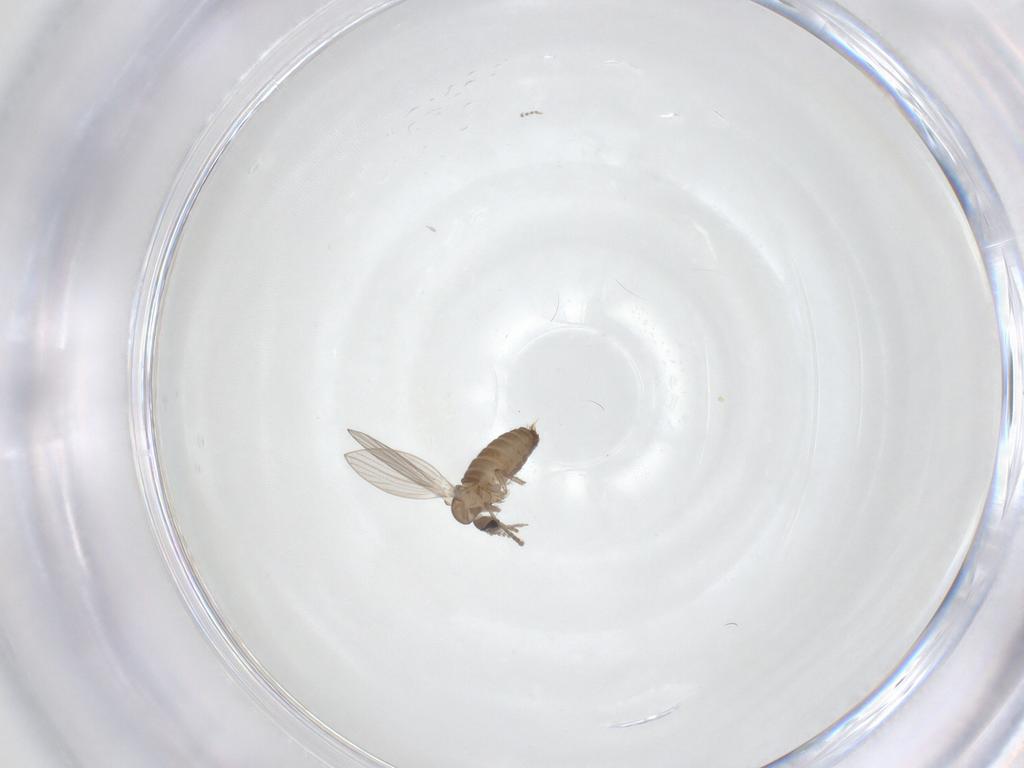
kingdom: Animalia
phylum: Arthropoda
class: Insecta
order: Diptera
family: Psychodidae
